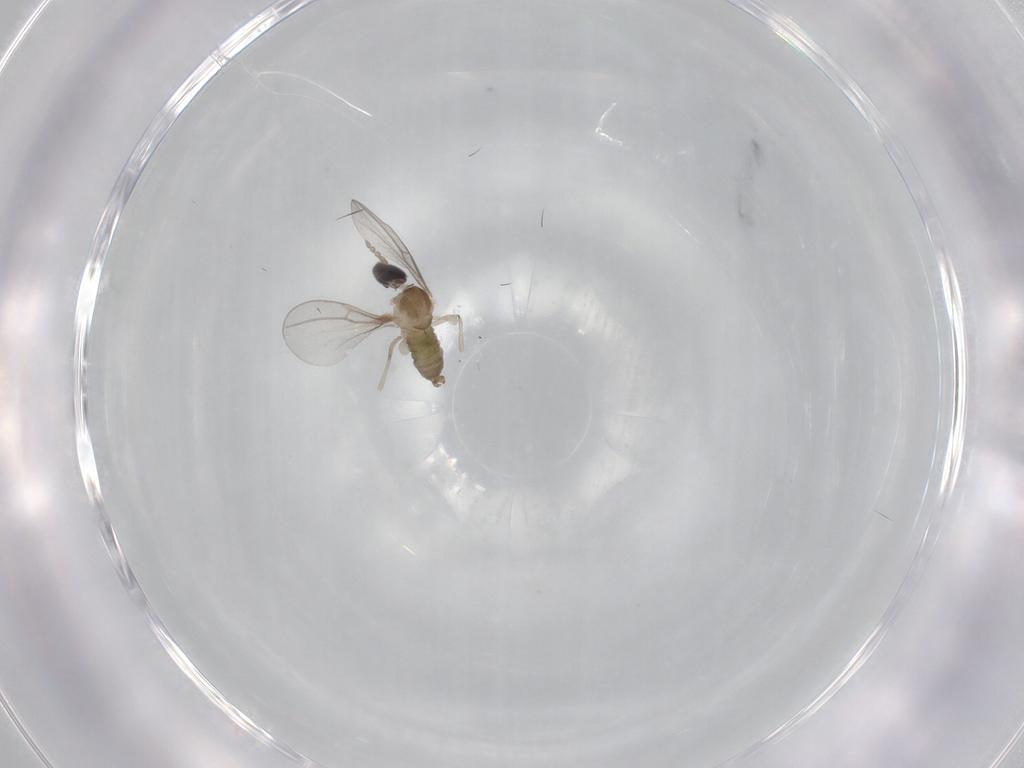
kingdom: Animalia
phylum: Arthropoda
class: Insecta
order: Diptera
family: Cecidomyiidae
